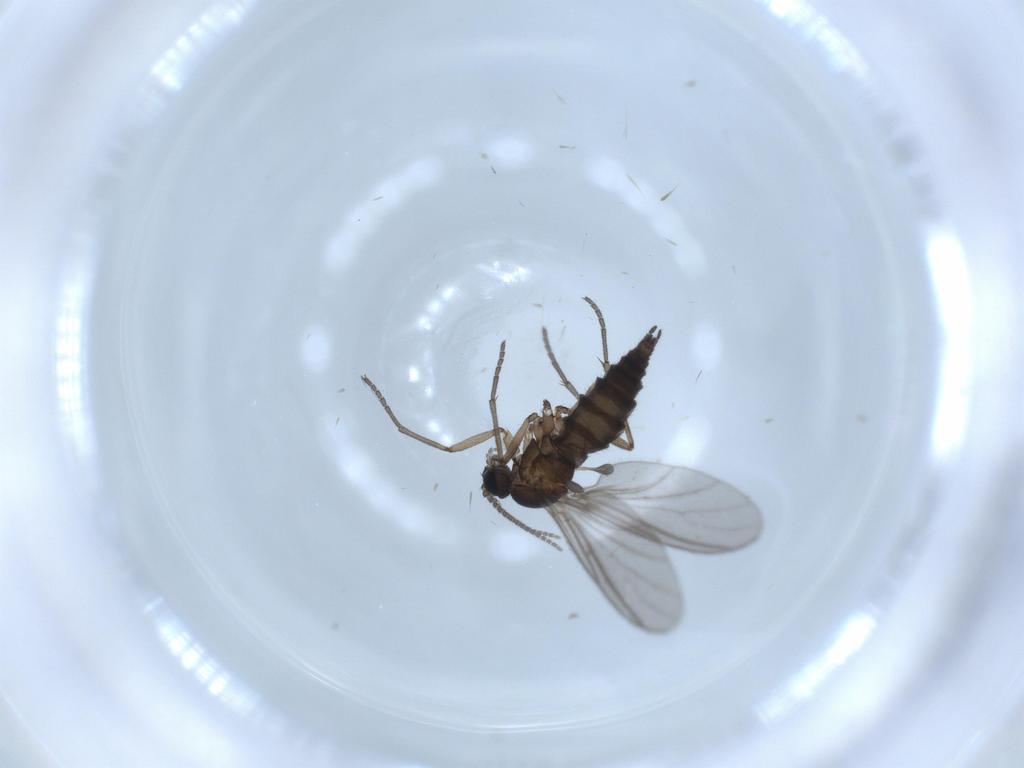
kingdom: Animalia
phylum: Arthropoda
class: Insecta
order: Diptera
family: Sciaridae
